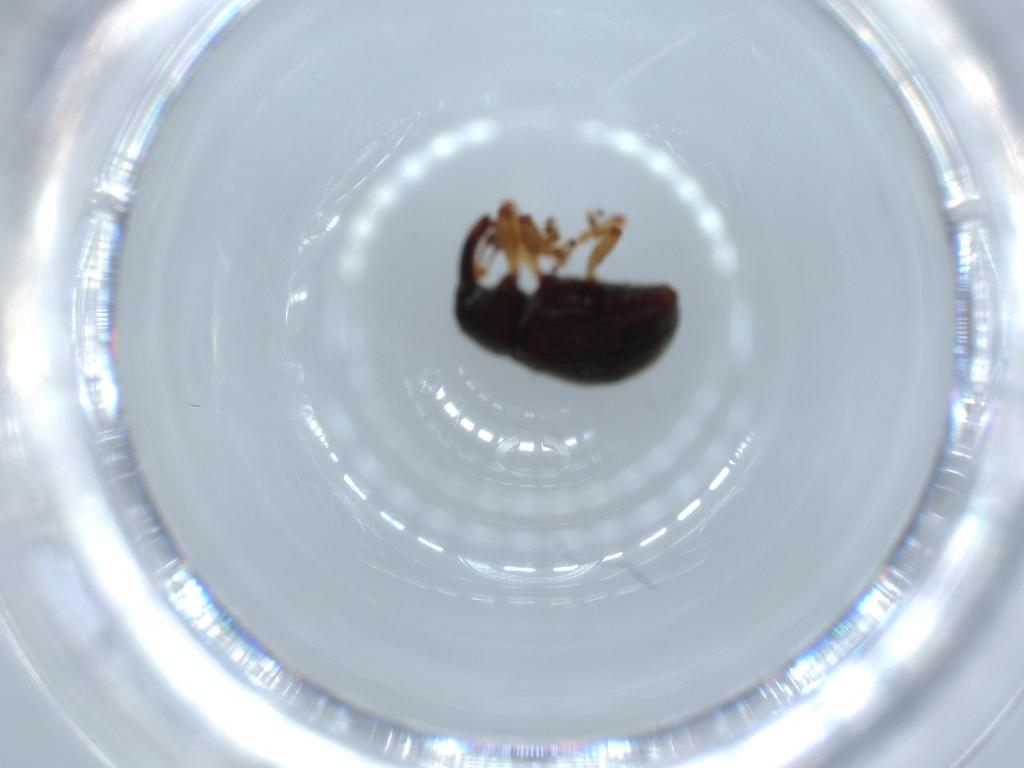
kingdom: Animalia
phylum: Arthropoda
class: Insecta
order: Coleoptera
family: Curculionidae
